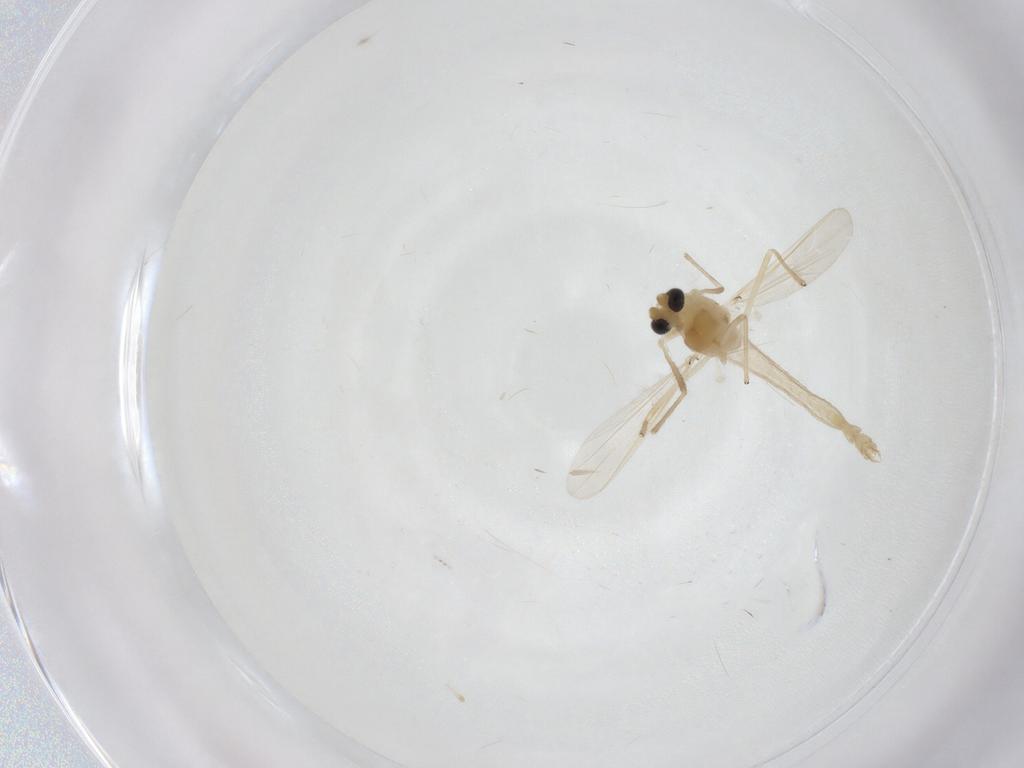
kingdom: Animalia
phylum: Arthropoda
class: Insecta
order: Diptera
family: Chironomidae
